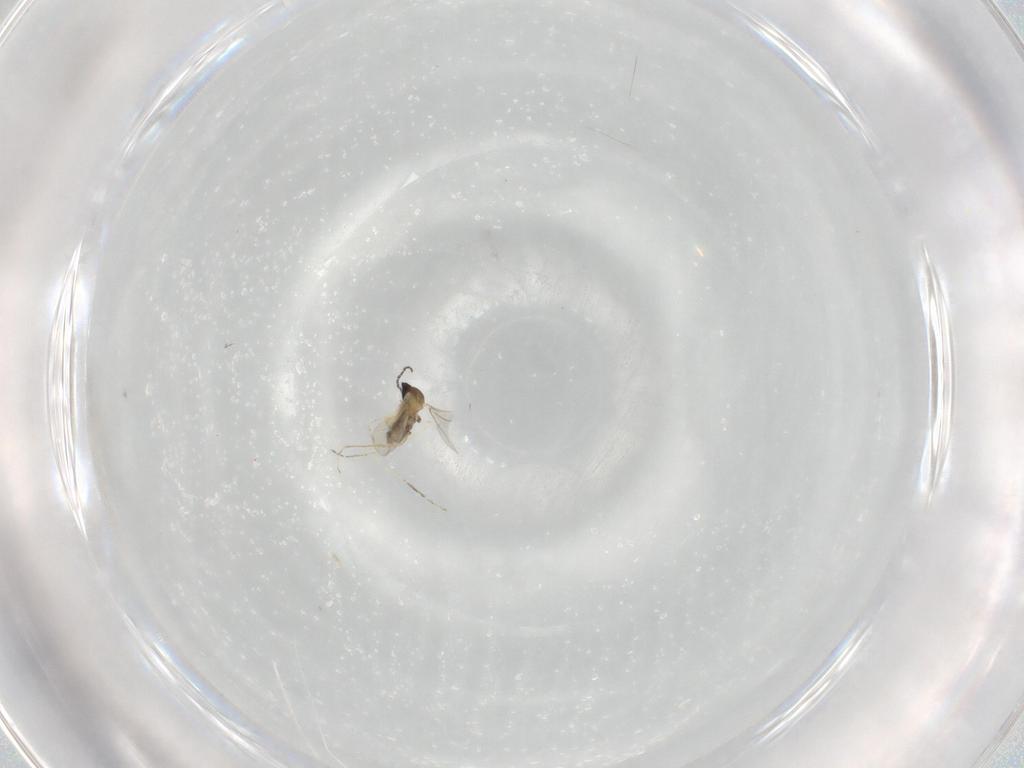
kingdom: Animalia
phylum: Arthropoda
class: Insecta
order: Diptera
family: Cecidomyiidae
